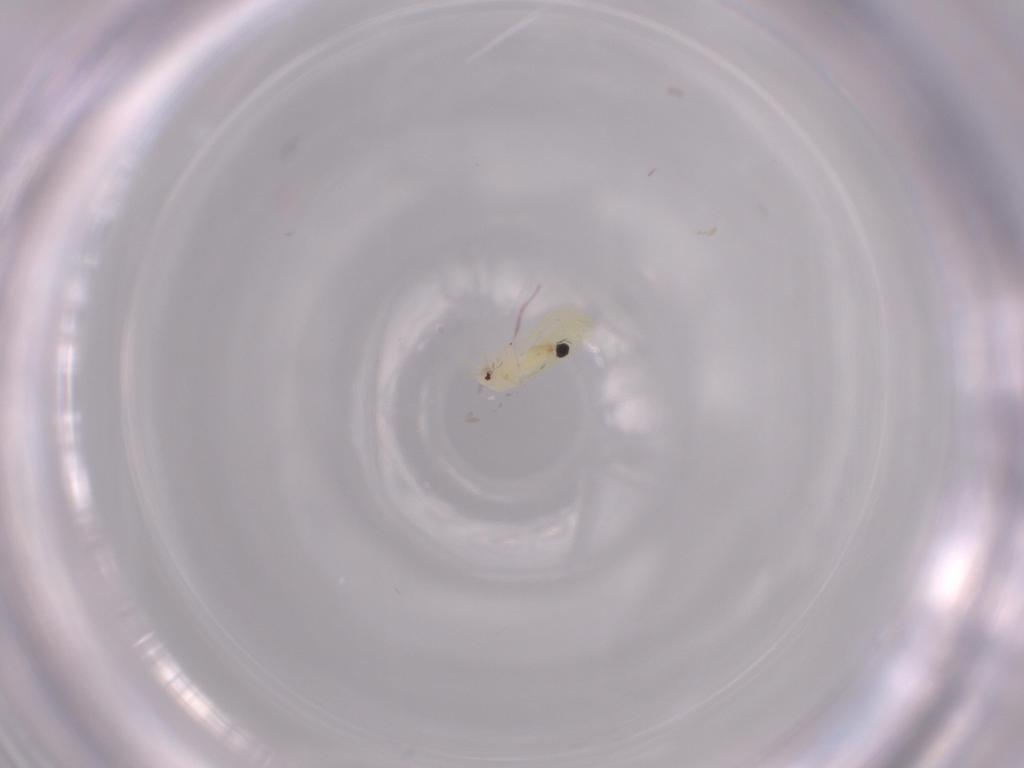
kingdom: Animalia
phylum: Arthropoda
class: Insecta
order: Hemiptera
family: Aleyrodidae
